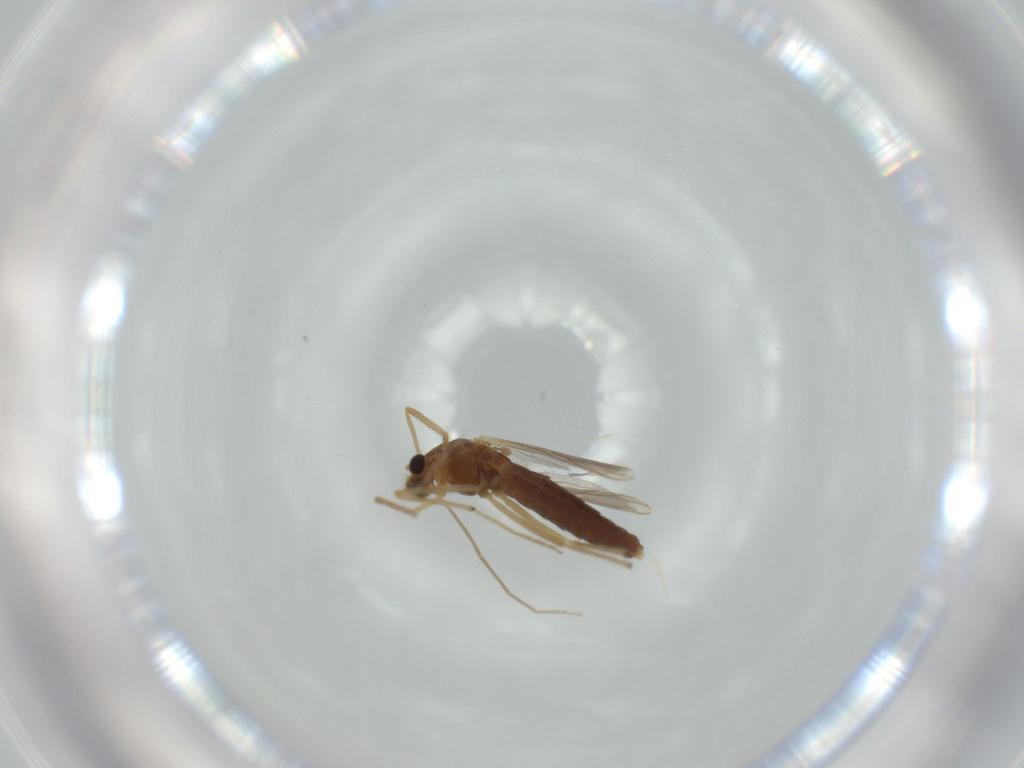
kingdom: Animalia
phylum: Arthropoda
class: Insecta
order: Diptera
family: Chironomidae
